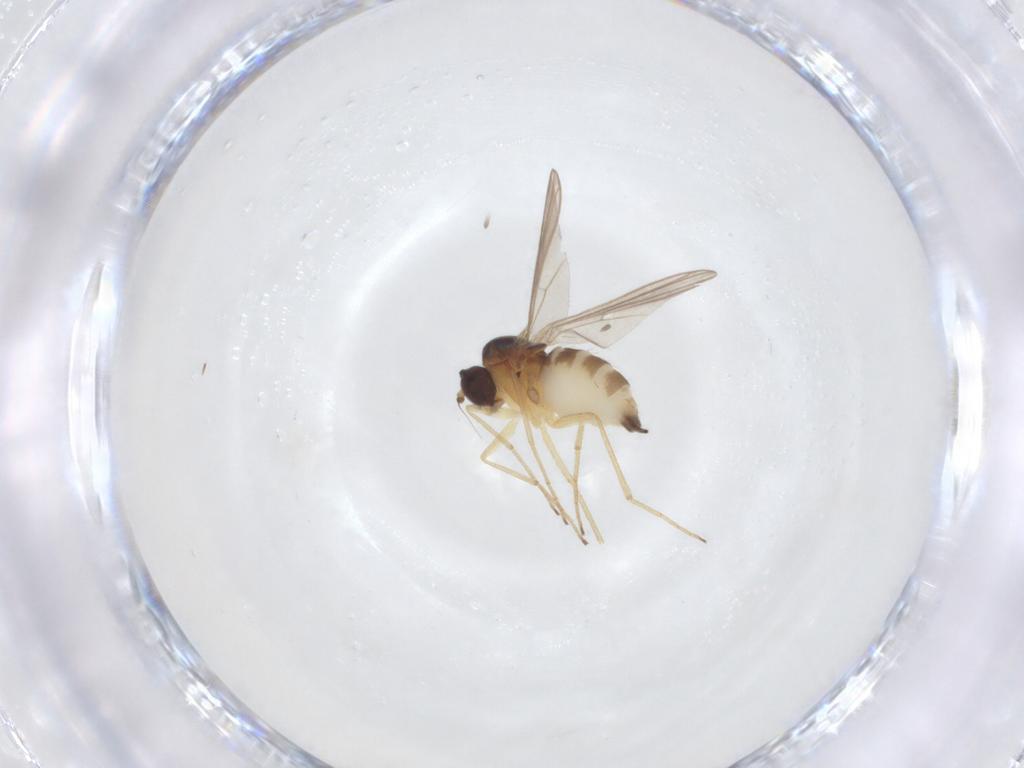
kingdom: Animalia
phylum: Arthropoda
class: Insecta
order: Diptera
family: Dolichopodidae
